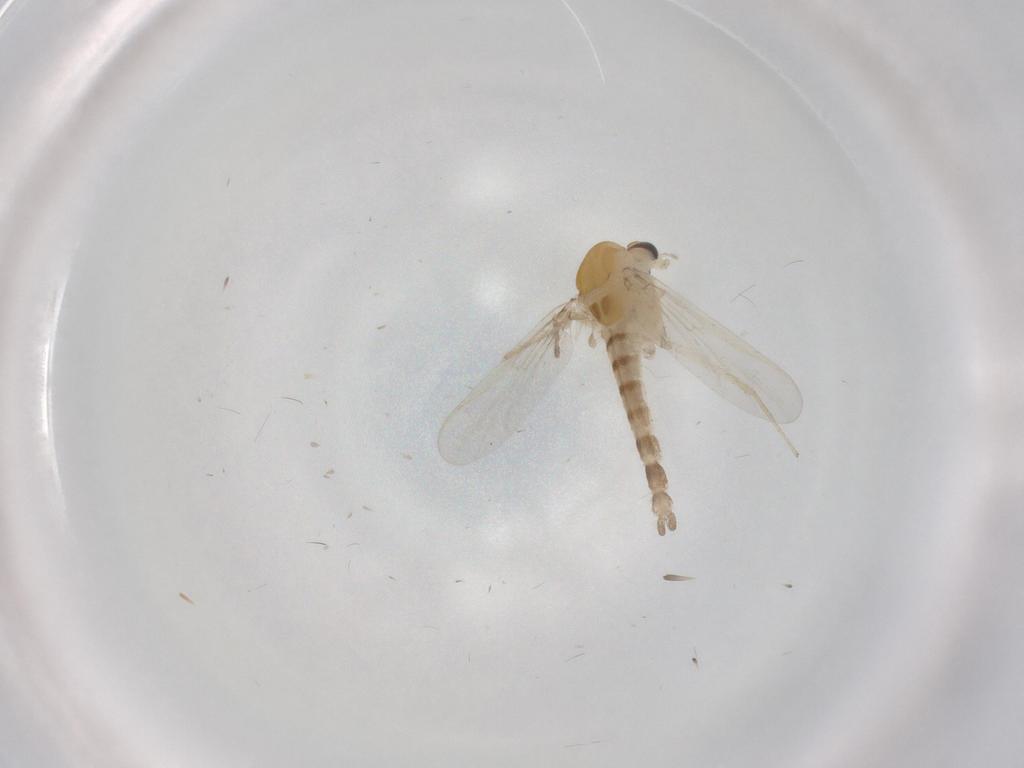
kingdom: Animalia
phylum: Arthropoda
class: Insecta
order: Diptera
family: Chironomidae
